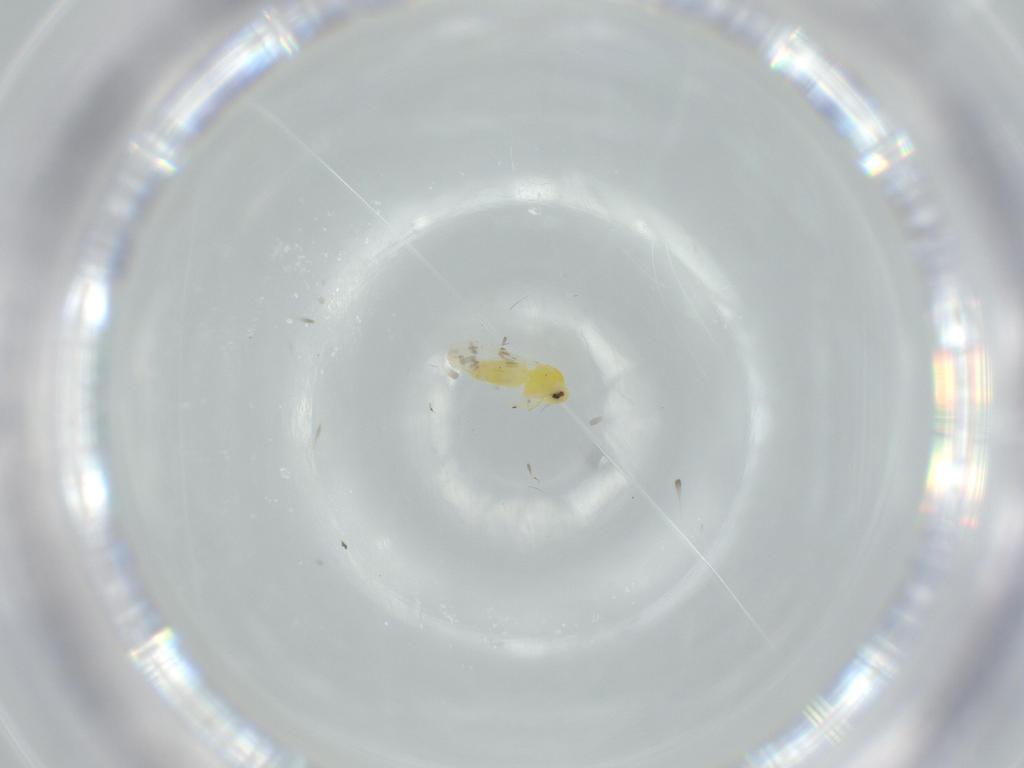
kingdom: Animalia
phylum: Arthropoda
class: Insecta
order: Hemiptera
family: Aleyrodidae
